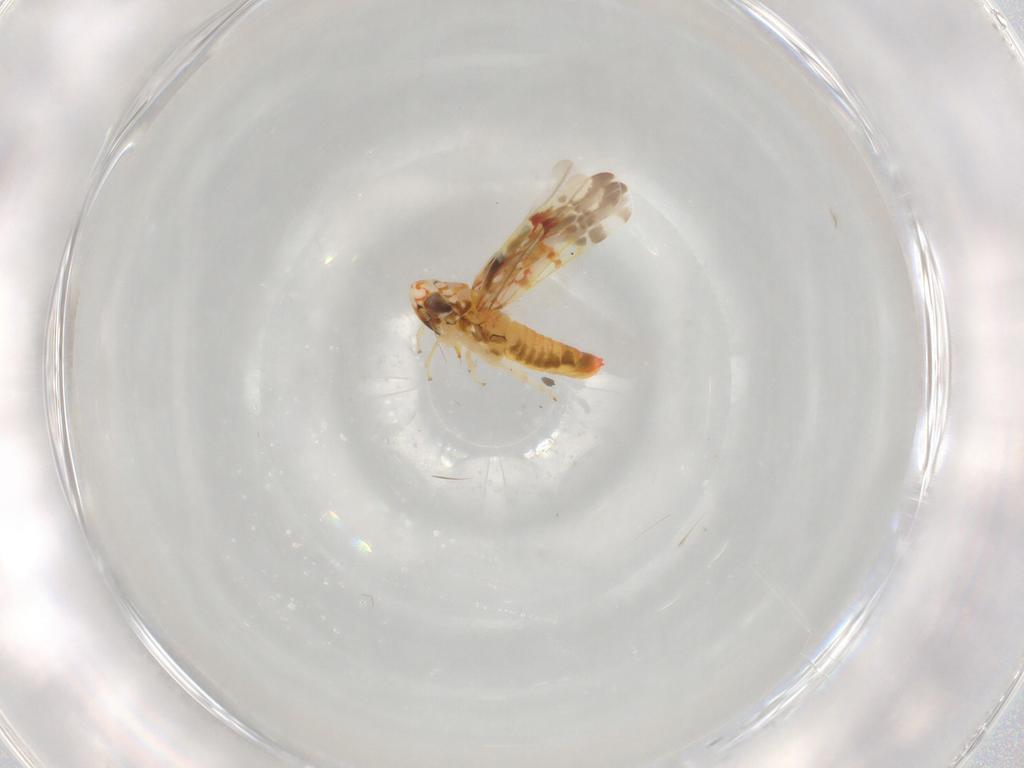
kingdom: Animalia
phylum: Arthropoda
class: Insecta
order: Hemiptera
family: Cicadellidae
